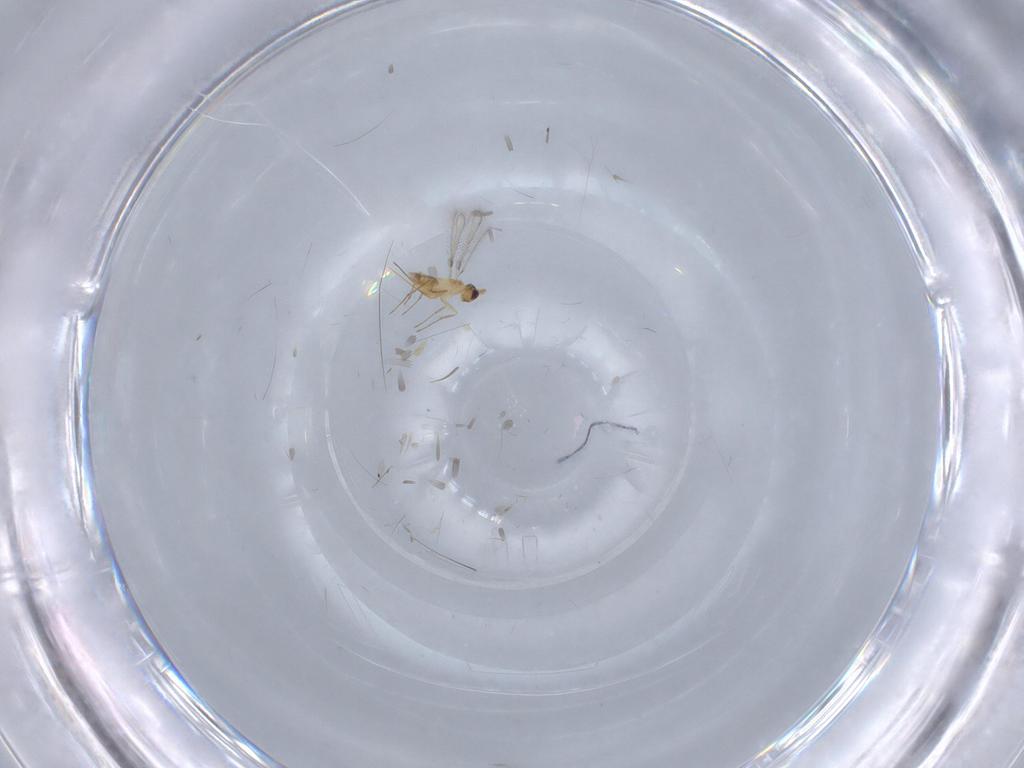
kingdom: Animalia
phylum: Arthropoda
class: Insecta
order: Hymenoptera
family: Mymaridae
